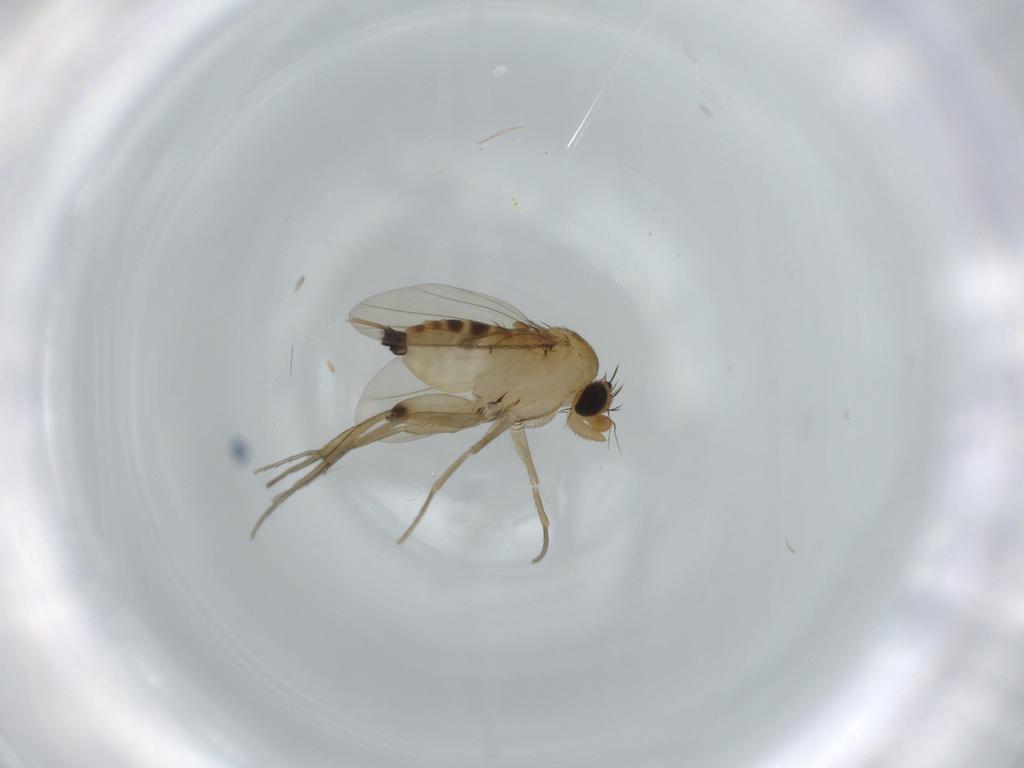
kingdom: Animalia
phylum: Arthropoda
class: Insecta
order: Diptera
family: Phoridae
